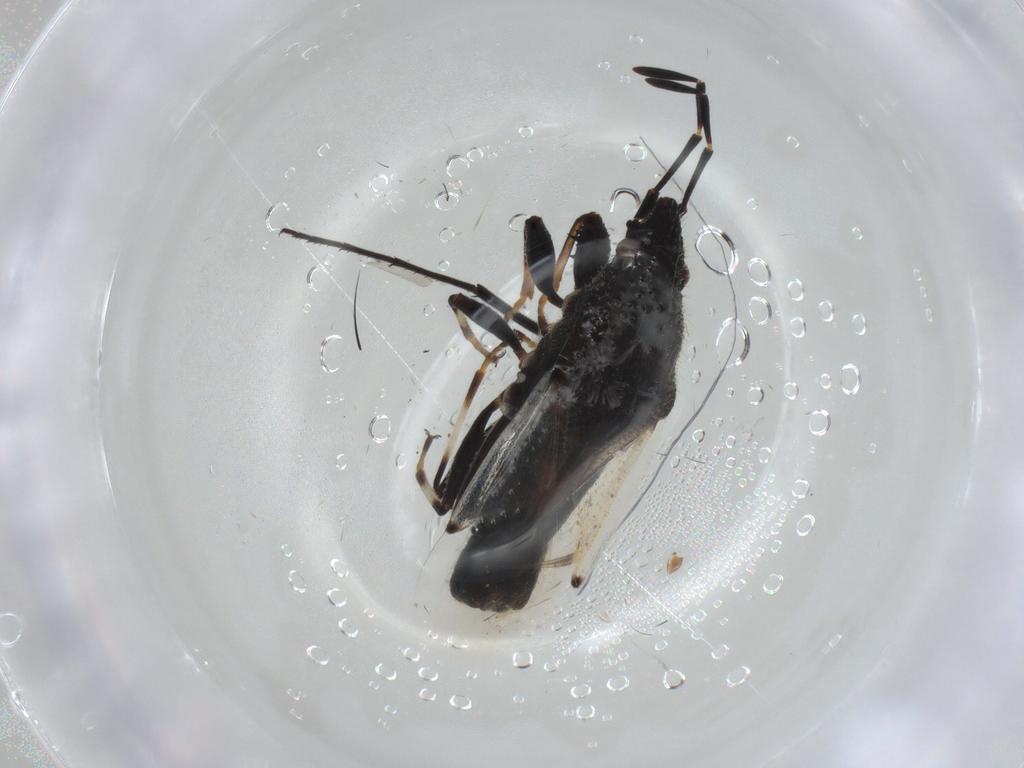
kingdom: Animalia
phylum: Arthropoda
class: Insecta
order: Diptera
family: Dolichopodidae
